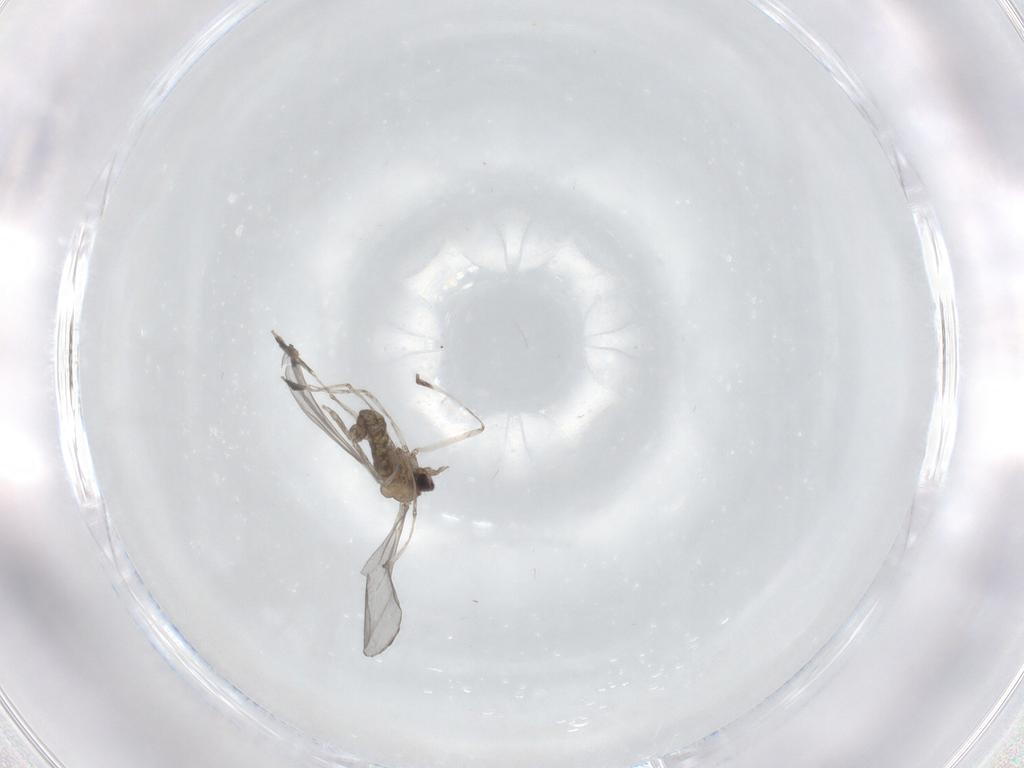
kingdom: Animalia
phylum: Arthropoda
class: Insecta
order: Diptera
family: Cecidomyiidae
